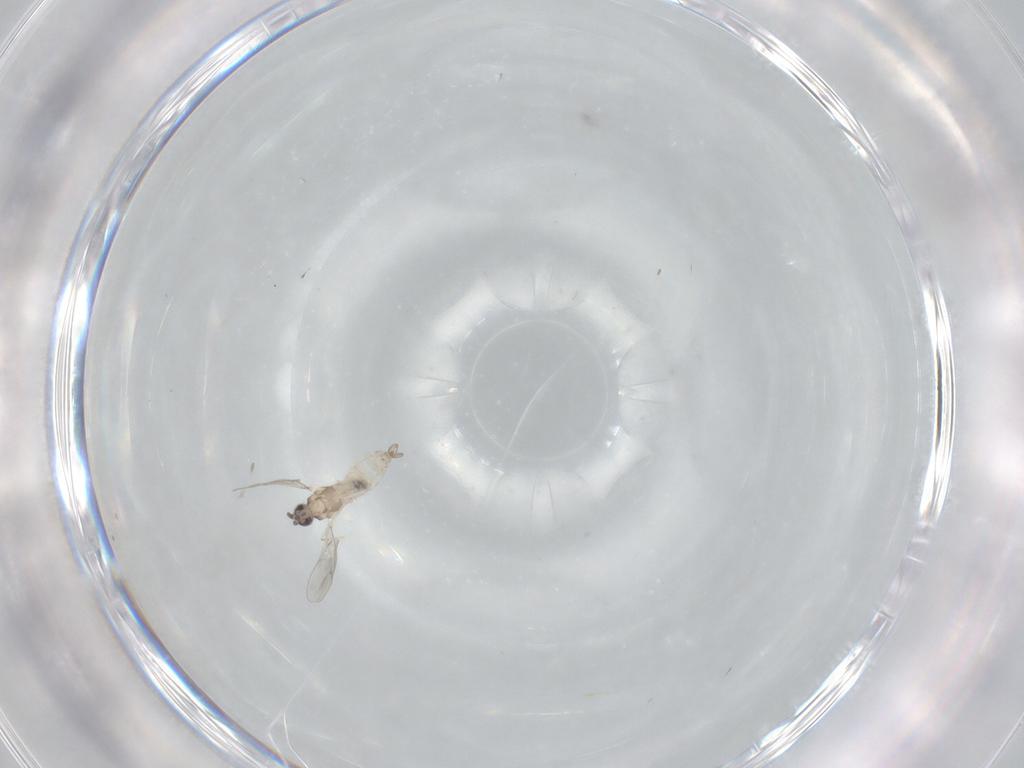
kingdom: Animalia
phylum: Arthropoda
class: Insecta
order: Diptera
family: Cecidomyiidae
